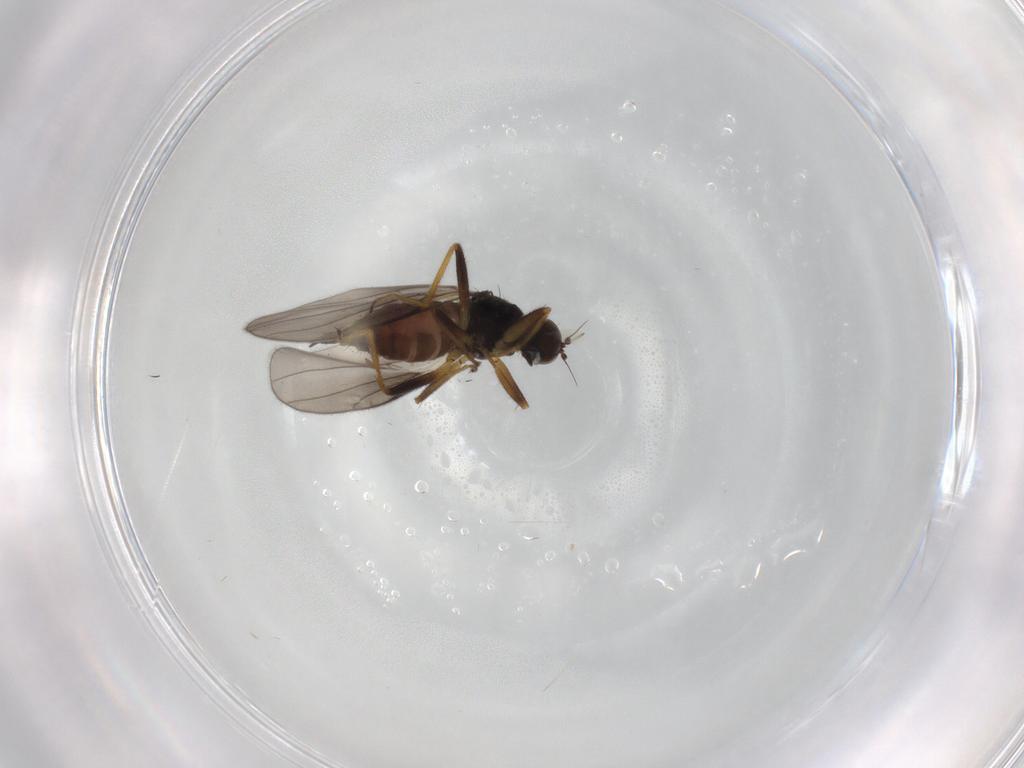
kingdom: Animalia
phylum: Arthropoda
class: Insecta
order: Diptera
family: Hybotidae
